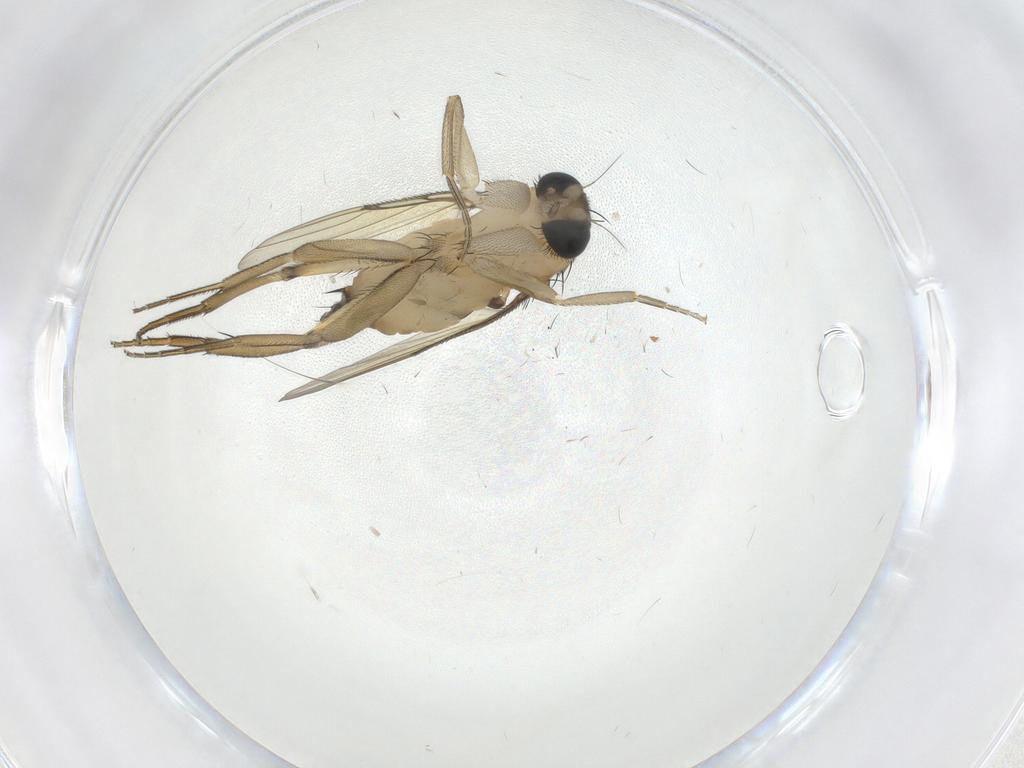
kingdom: Animalia
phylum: Arthropoda
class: Insecta
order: Diptera
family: Phoridae
